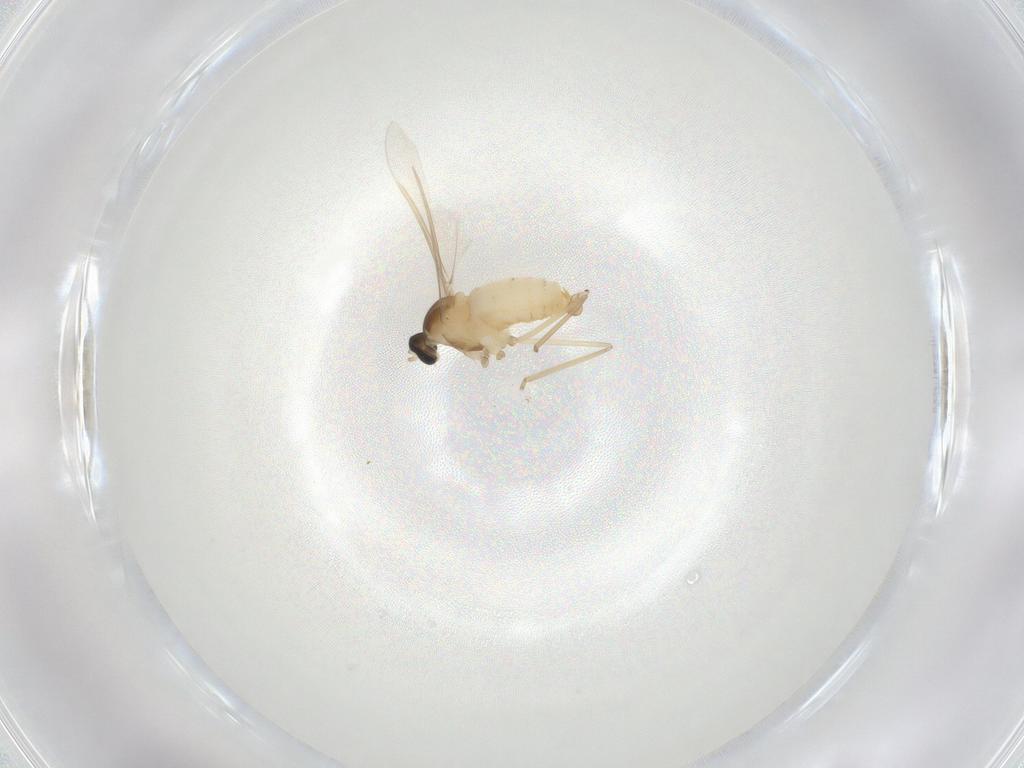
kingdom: Animalia
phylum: Arthropoda
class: Insecta
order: Diptera
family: Cecidomyiidae
